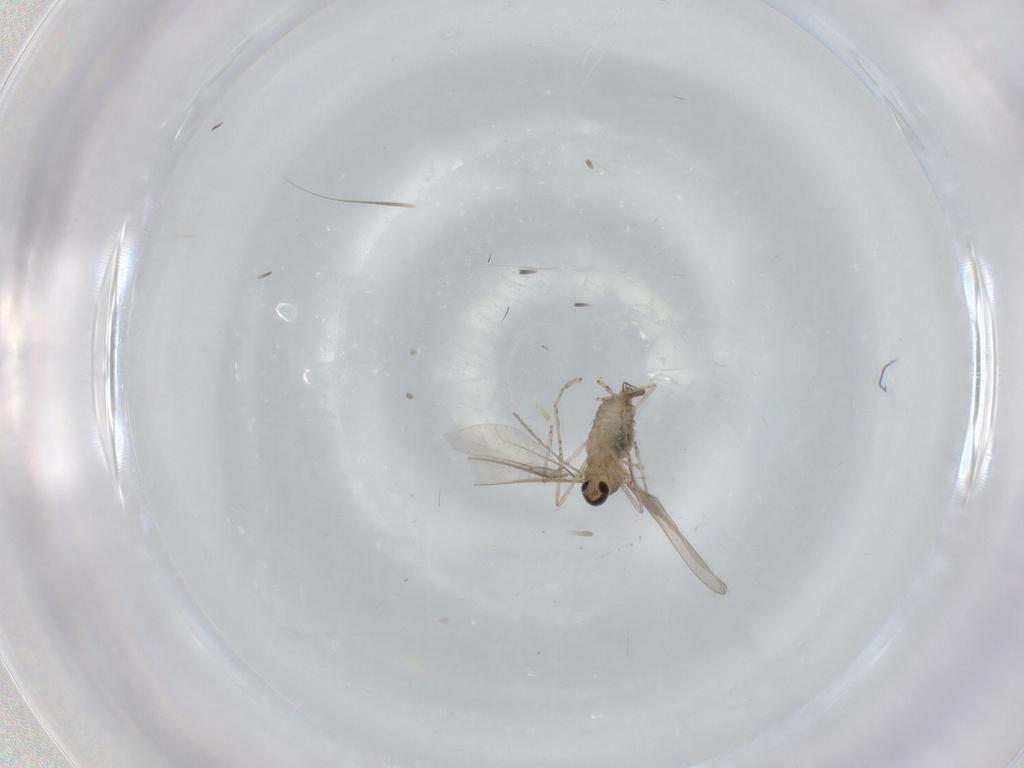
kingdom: Animalia
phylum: Arthropoda
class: Insecta
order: Diptera
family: Cecidomyiidae
